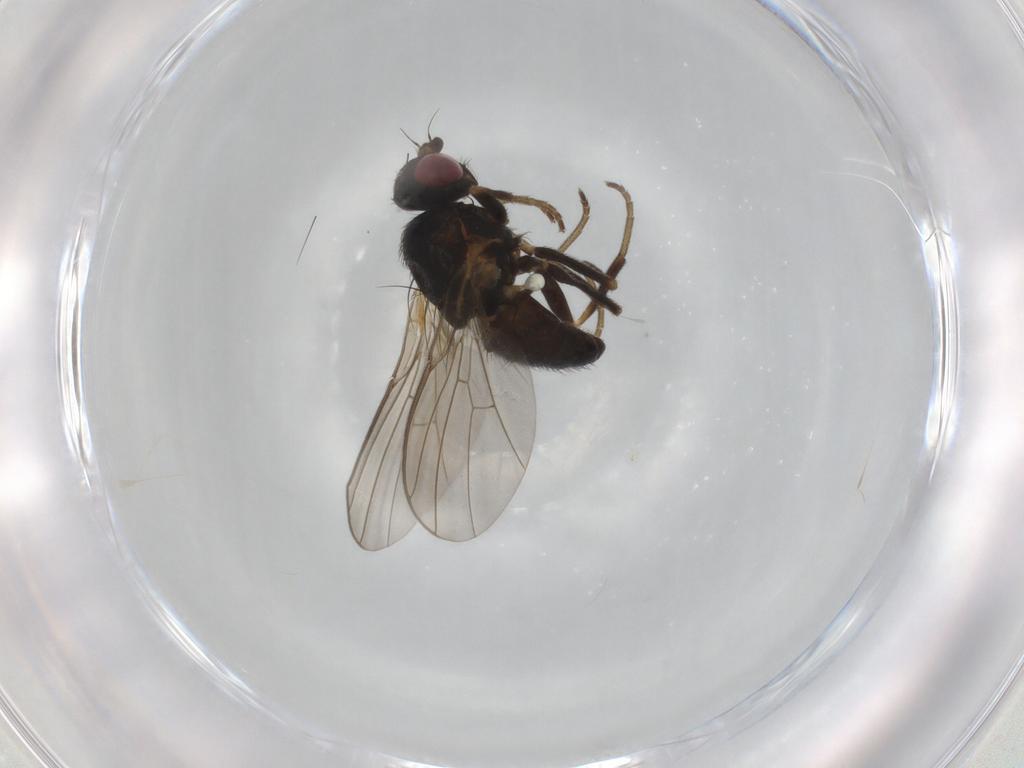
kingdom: Animalia
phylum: Arthropoda
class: Insecta
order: Diptera
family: Agromyzidae
